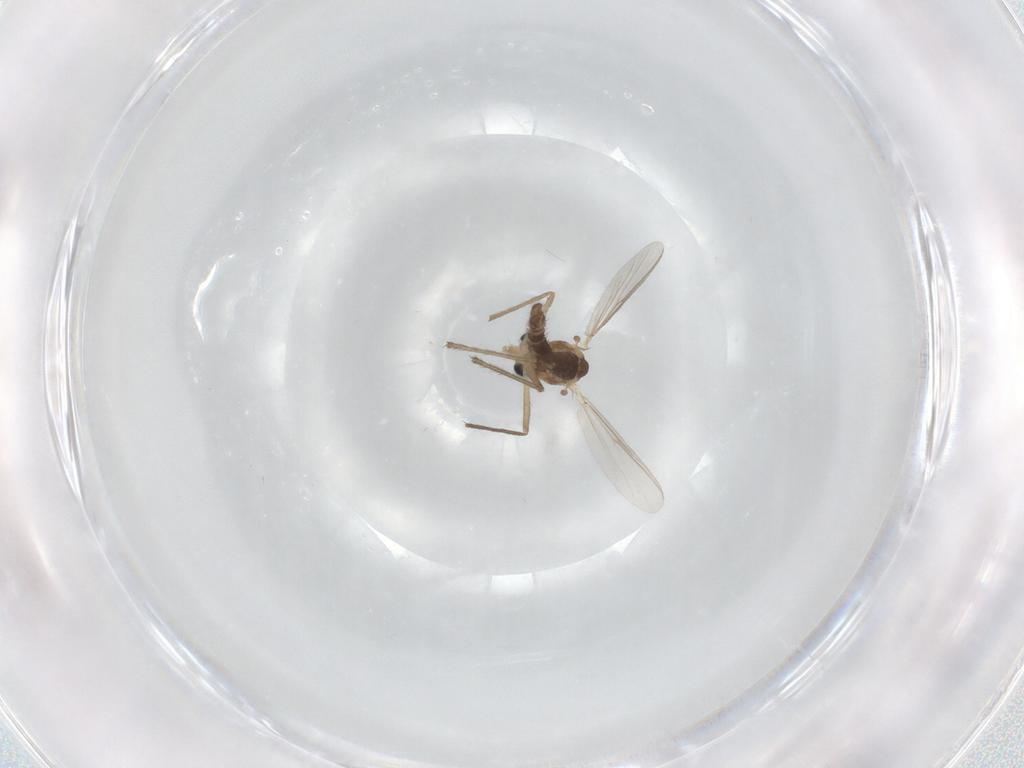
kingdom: Animalia
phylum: Arthropoda
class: Insecta
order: Diptera
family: Chironomidae
